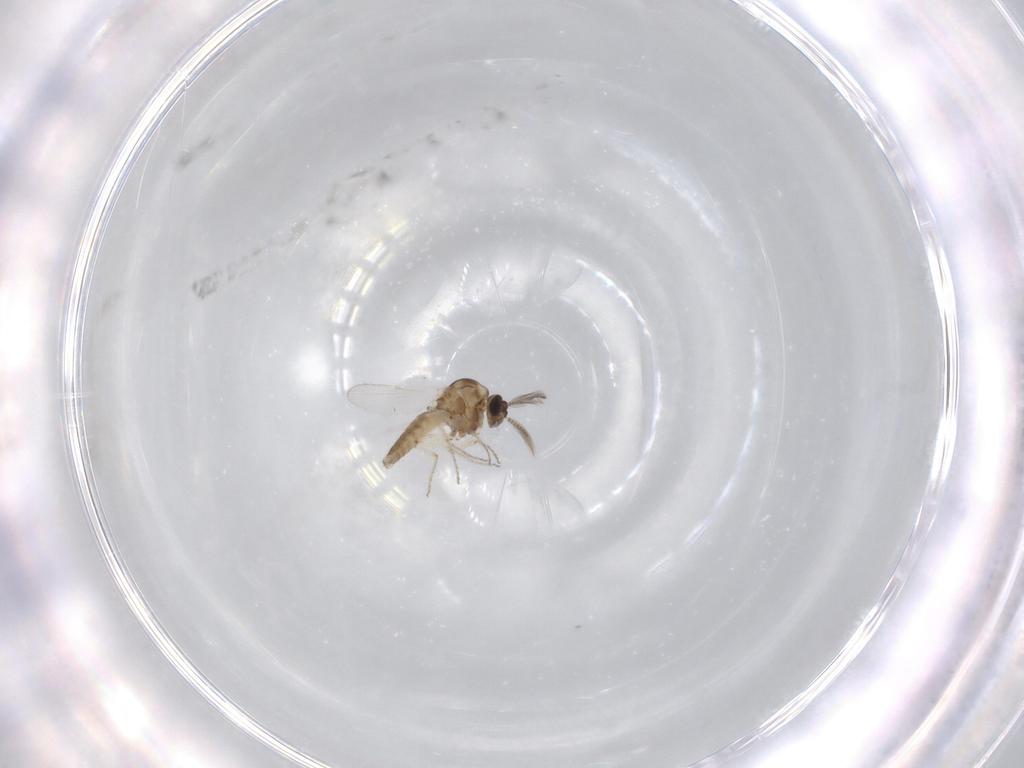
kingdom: Animalia
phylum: Arthropoda
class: Insecta
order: Diptera
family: Ceratopogonidae
